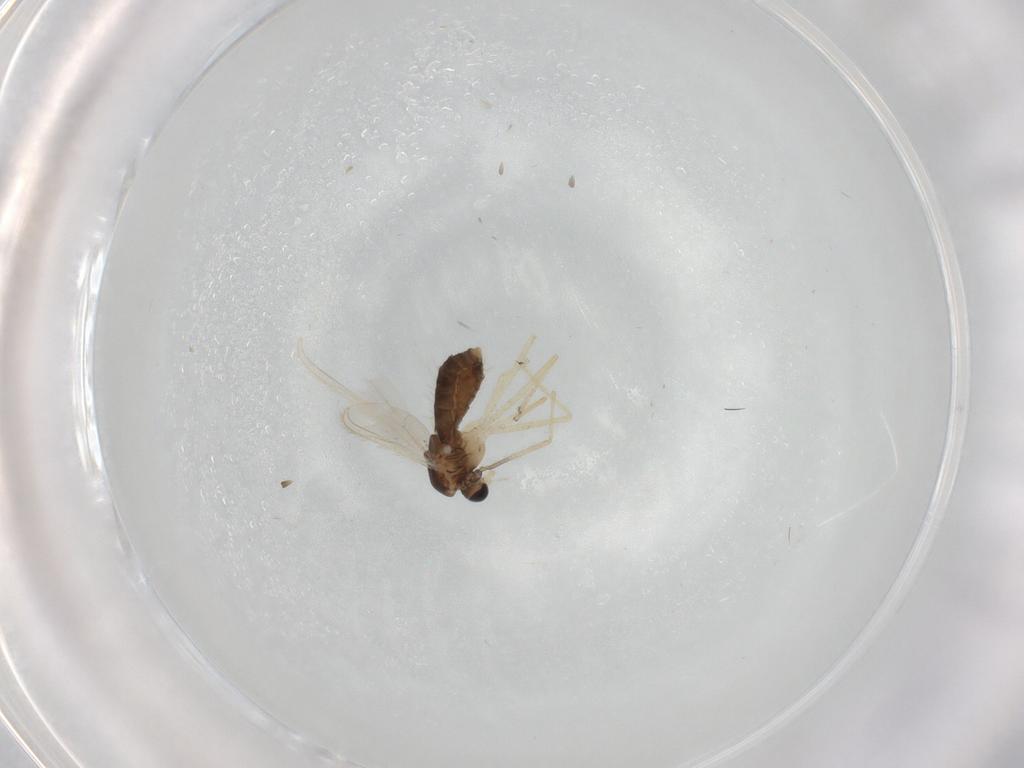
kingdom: Animalia
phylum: Arthropoda
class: Insecta
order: Diptera
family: Chironomidae
